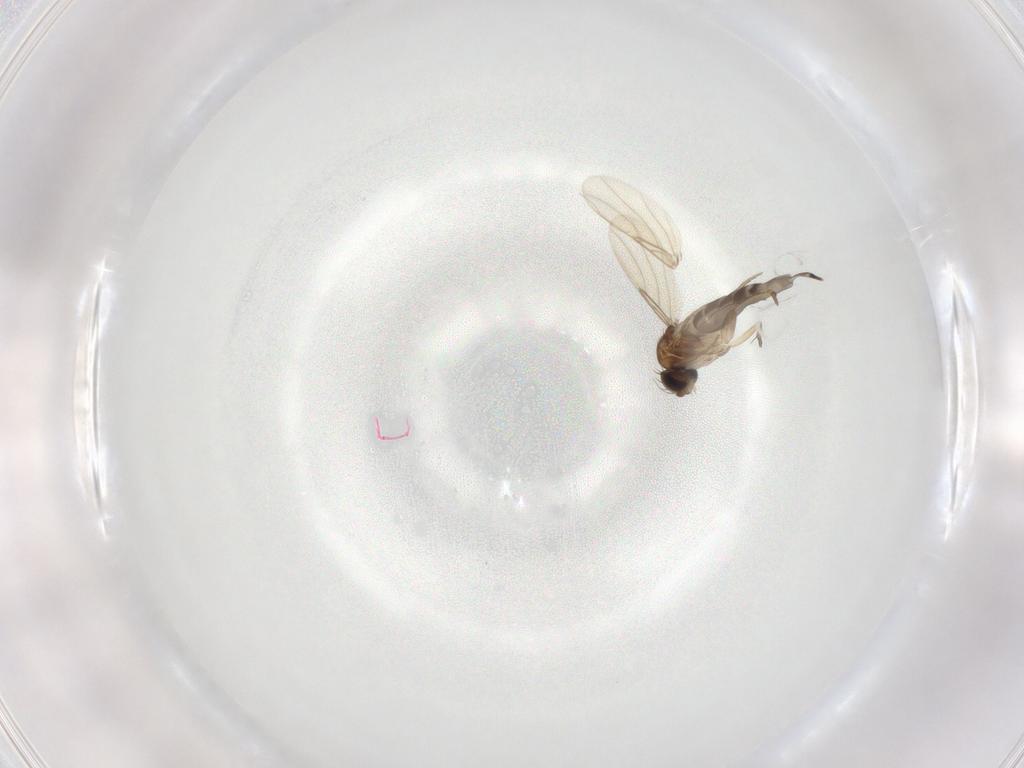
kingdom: Animalia
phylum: Arthropoda
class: Insecta
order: Diptera
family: Phoridae
